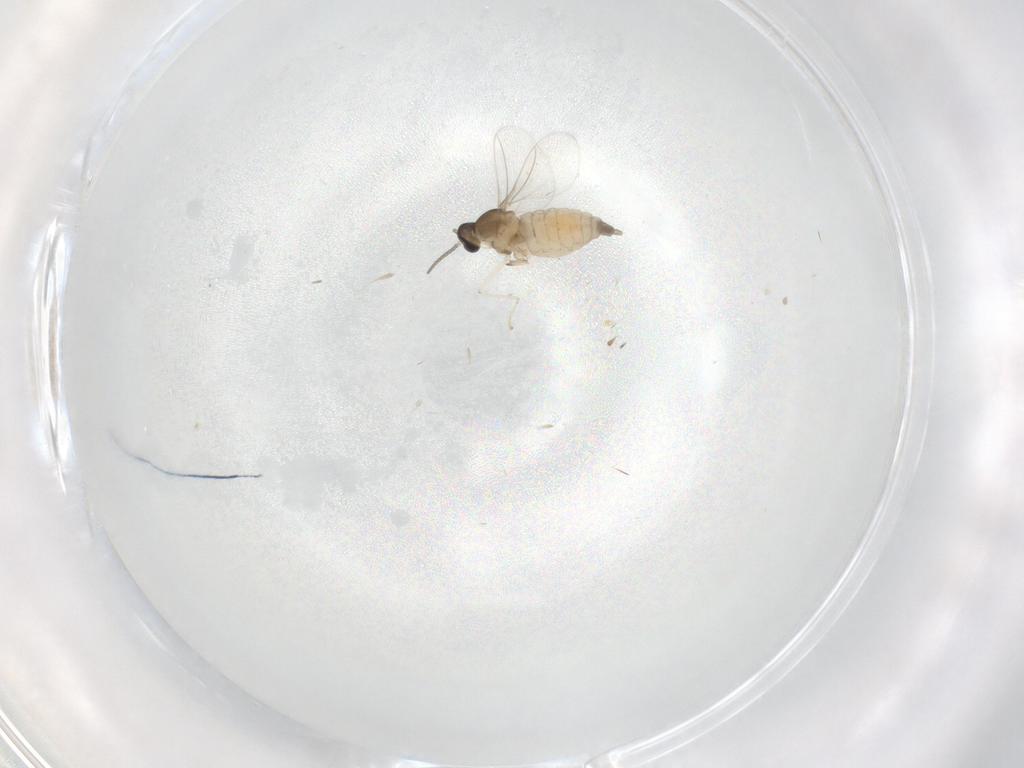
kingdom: Animalia
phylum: Arthropoda
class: Insecta
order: Diptera
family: Cecidomyiidae
